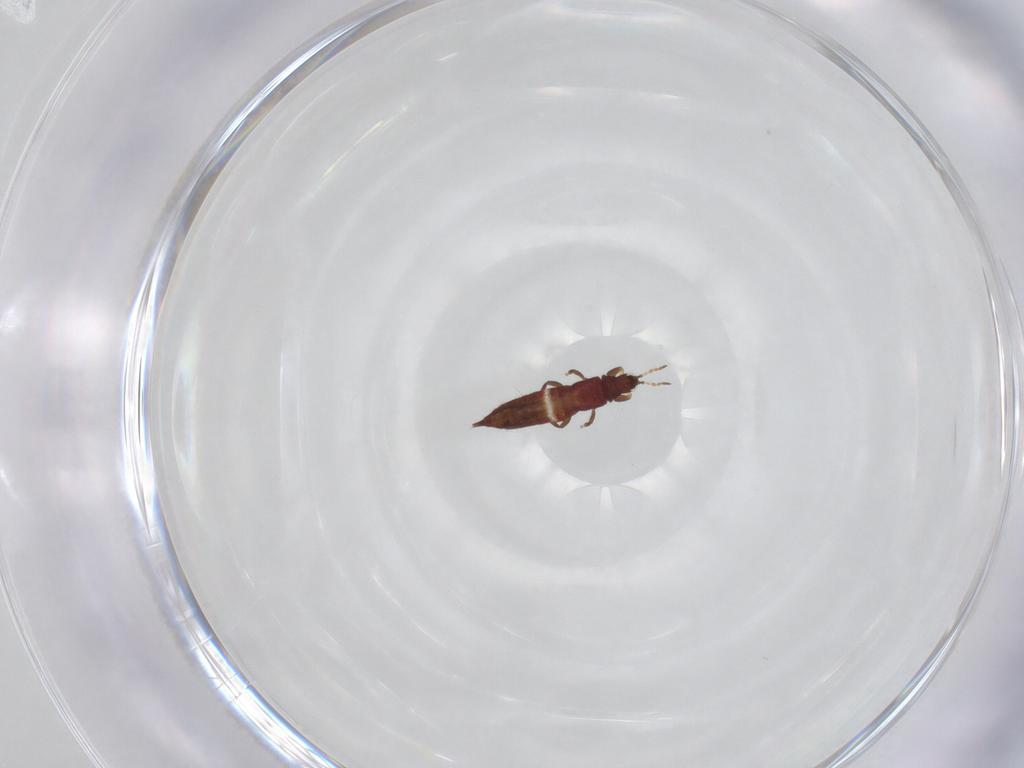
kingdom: Animalia
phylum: Arthropoda
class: Insecta
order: Thysanoptera
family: Phlaeothripidae
